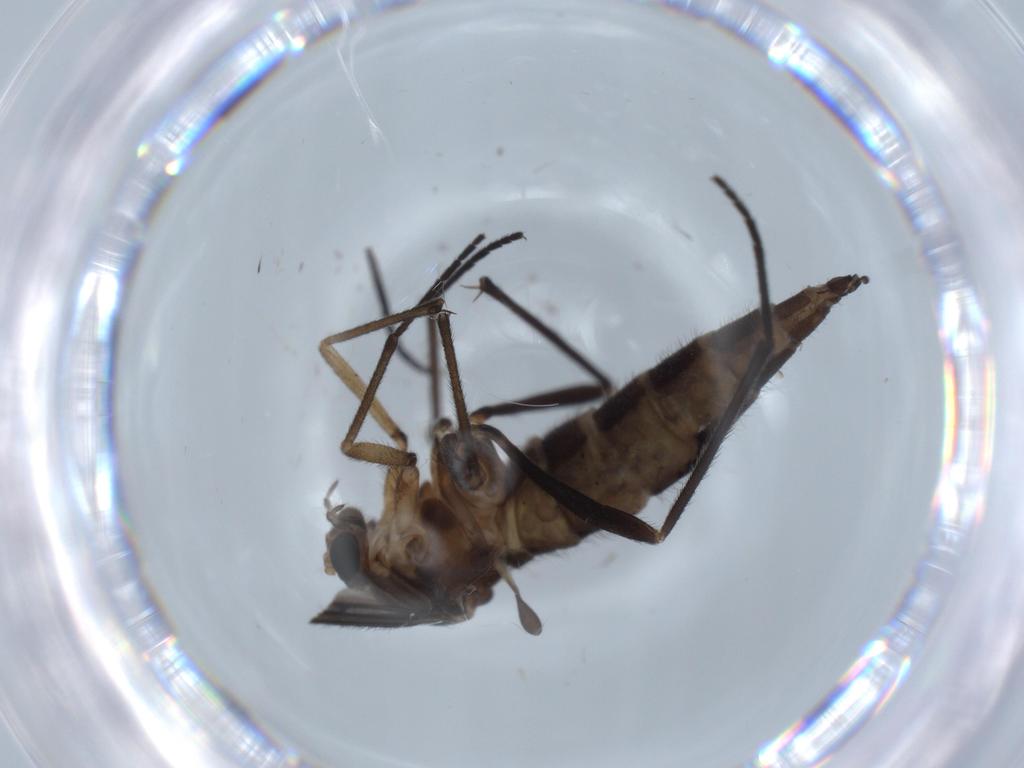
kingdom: Animalia
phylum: Arthropoda
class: Insecta
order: Diptera
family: Sciaridae
